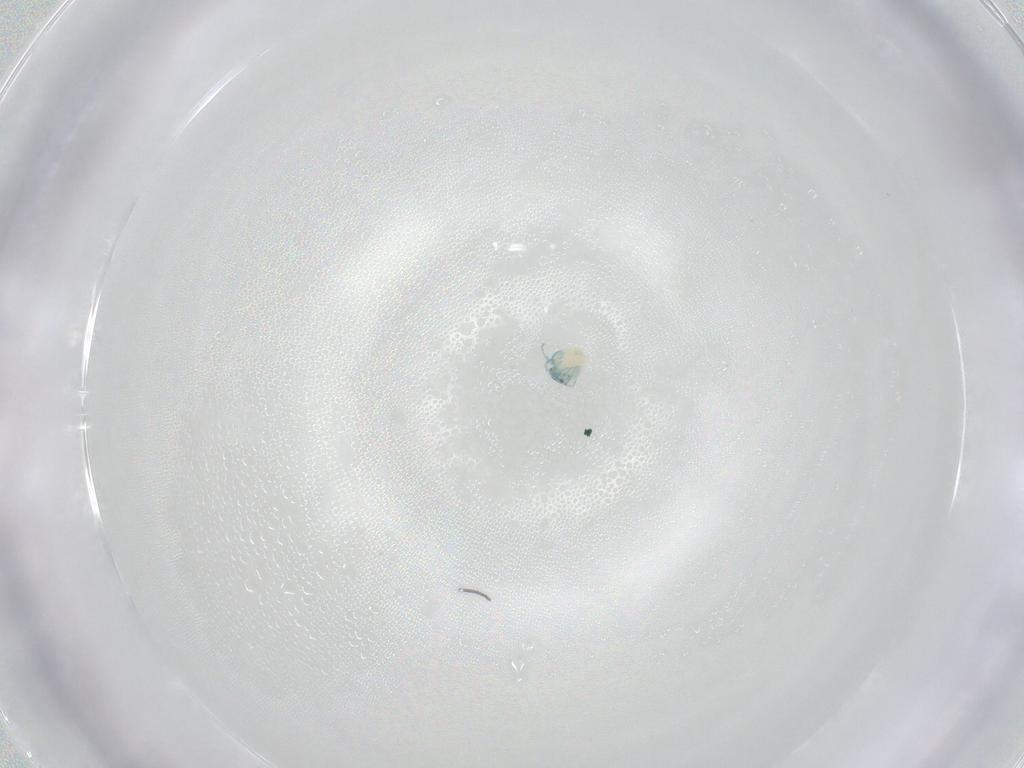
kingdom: Animalia
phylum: Arthropoda
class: Arachnida
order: Trombidiformes
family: Arrenuridae
